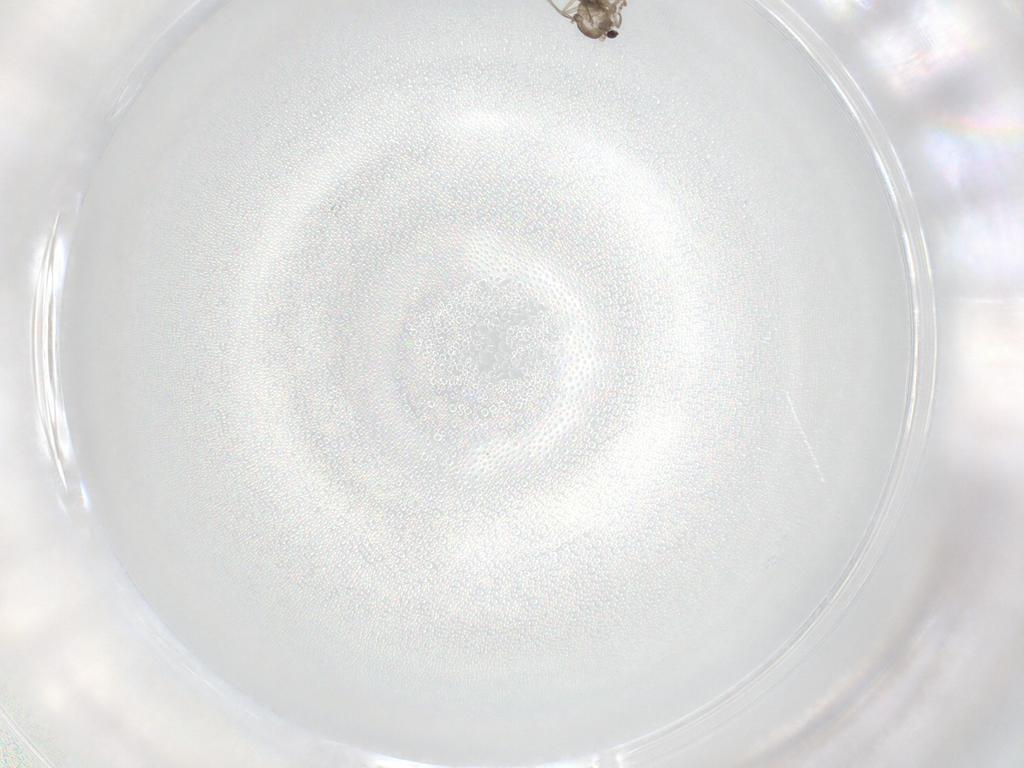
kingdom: Animalia
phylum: Arthropoda
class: Insecta
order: Diptera
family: Cecidomyiidae
